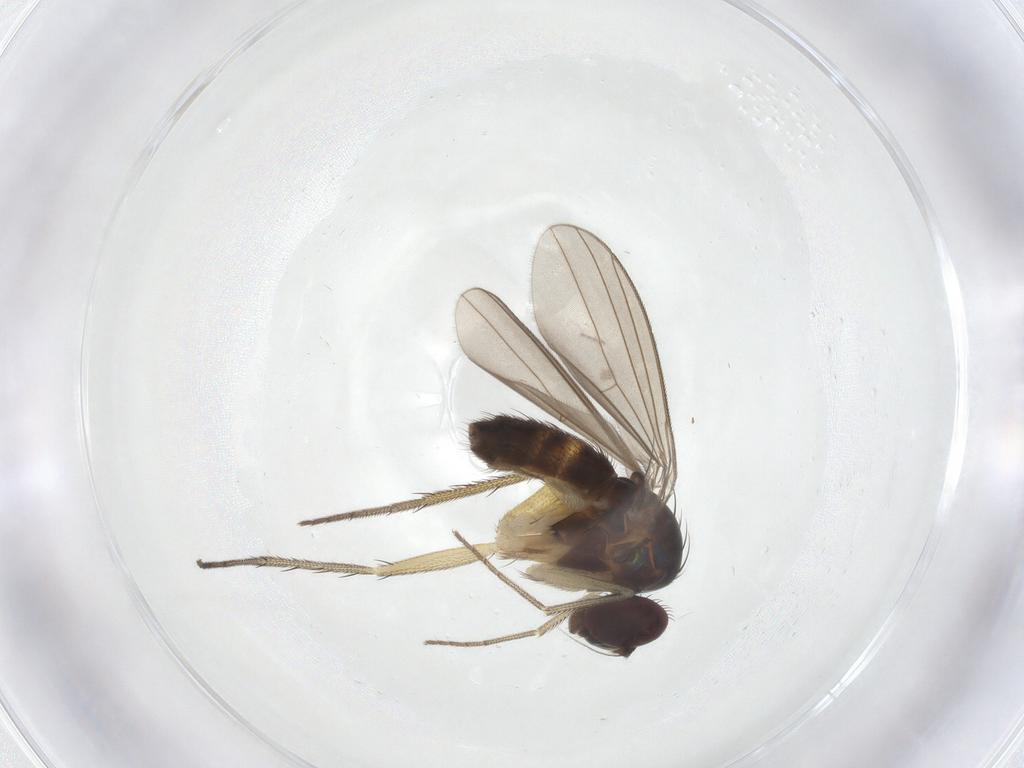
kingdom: Animalia
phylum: Arthropoda
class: Insecta
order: Diptera
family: Dolichopodidae
